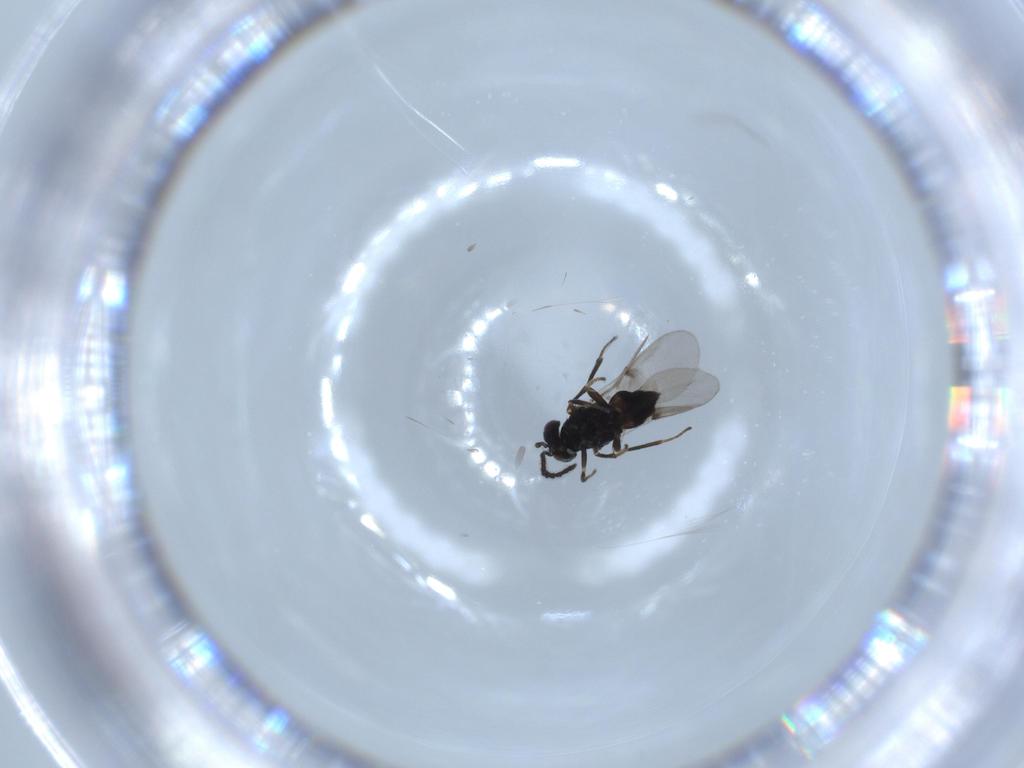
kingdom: Animalia
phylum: Arthropoda
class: Insecta
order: Hymenoptera
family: Encyrtidae
